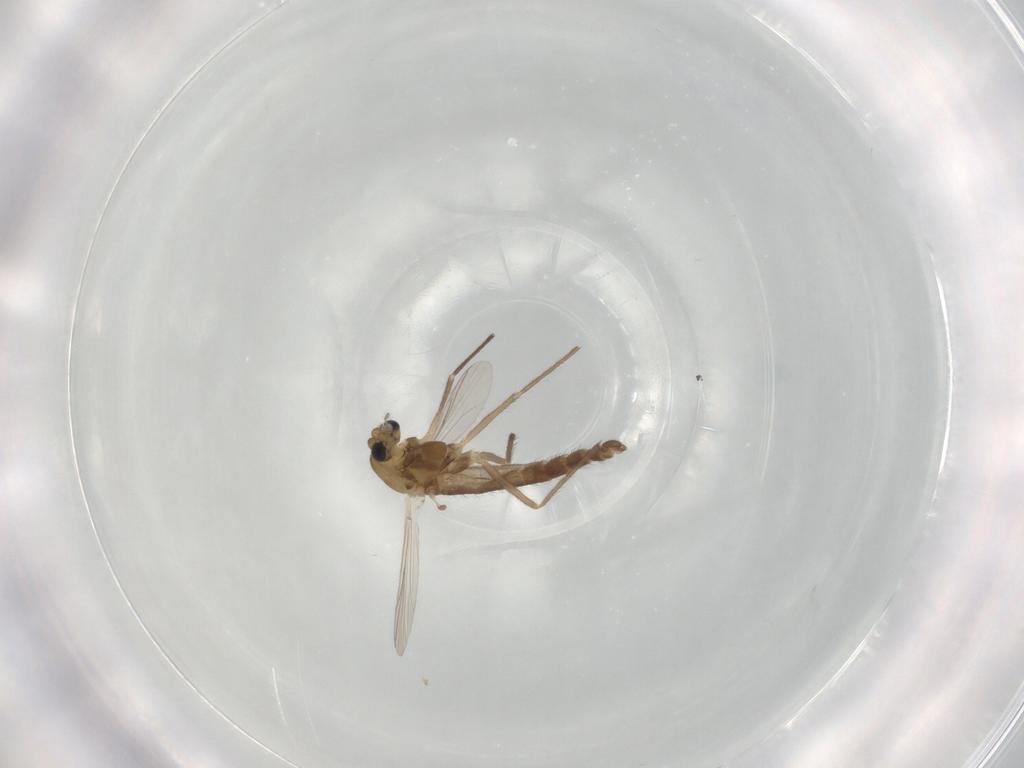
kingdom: Animalia
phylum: Arthropoda
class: Insecta
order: Diptera
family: Chironomidae
